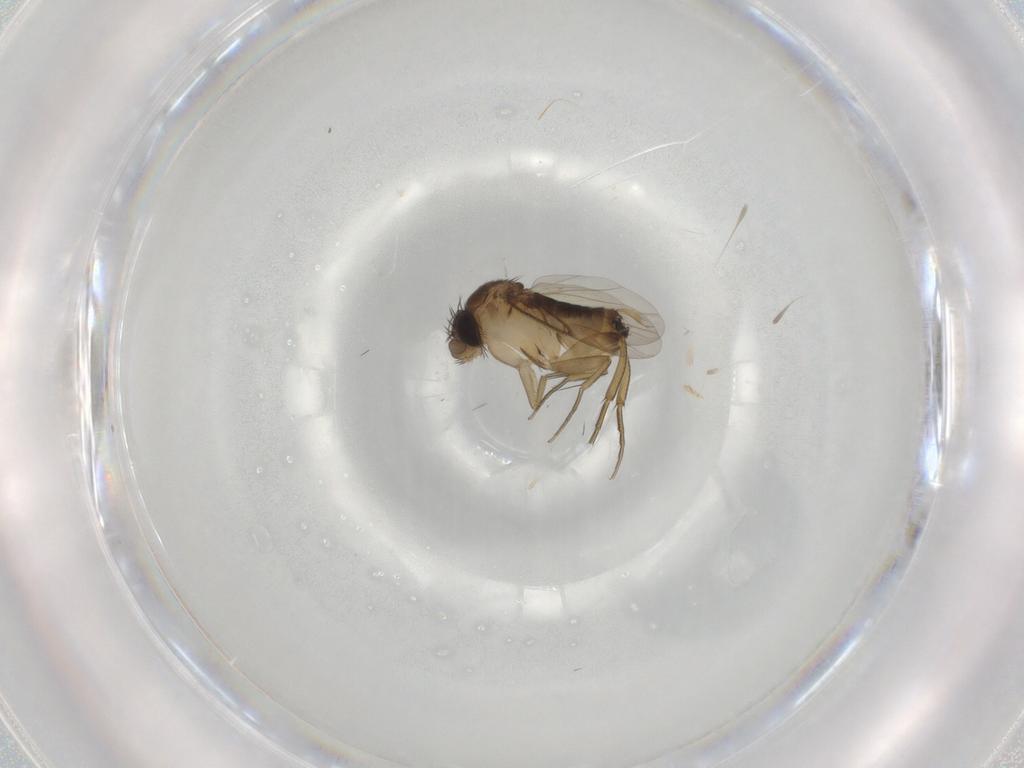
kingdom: Animalia
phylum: Arthropoda
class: Insecta
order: Diptera
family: Phoridae
